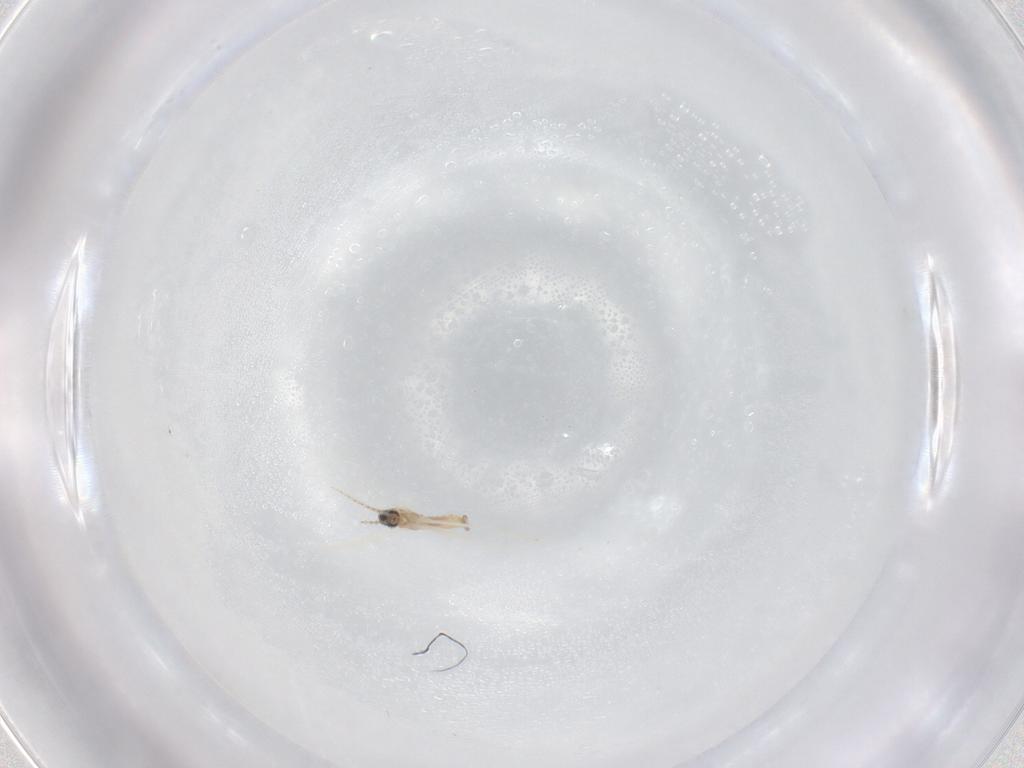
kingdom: Animalia
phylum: Arthropoda
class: Insecta
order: Diptera
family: Cecidomyiidae
